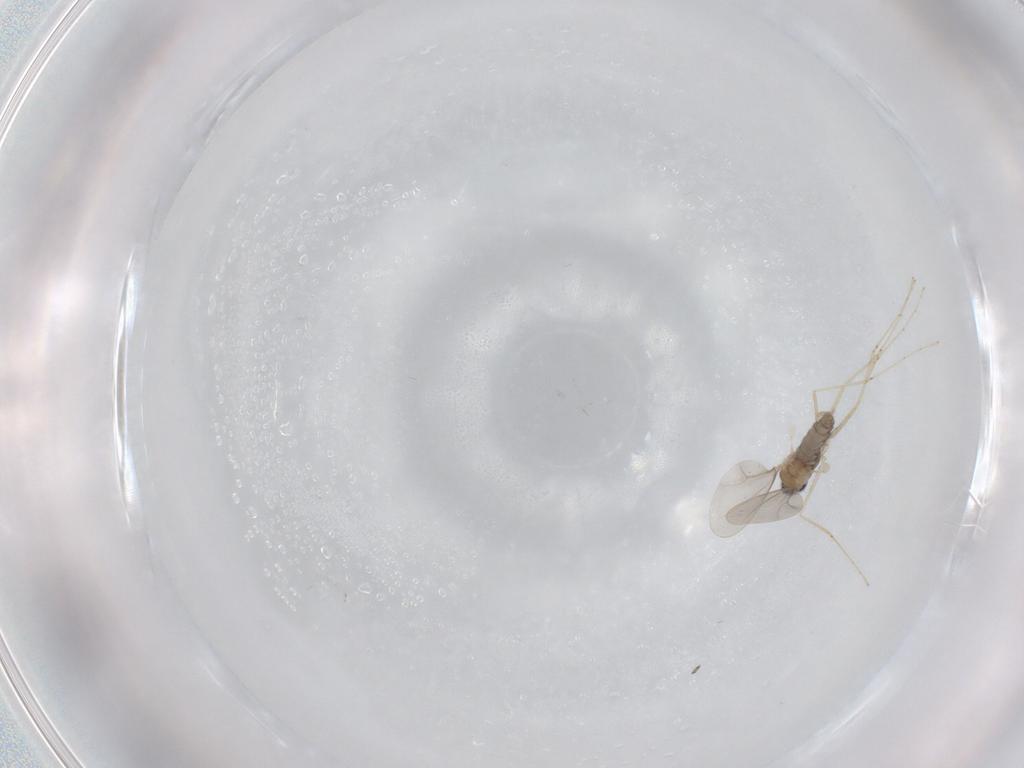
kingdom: Animalia
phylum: Arthropoda
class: Insecta
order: Diptera
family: Cecidomyiidae
